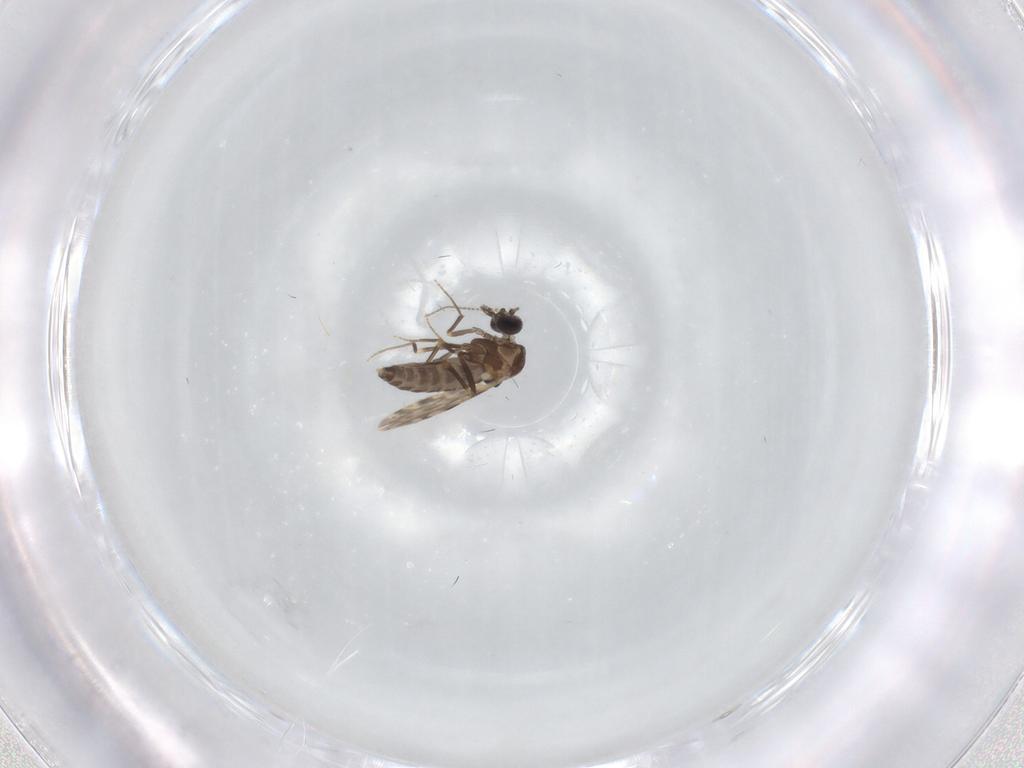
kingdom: Animalia
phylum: Arthropoda
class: Insecta
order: Diptera
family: Ceratopogonidae
